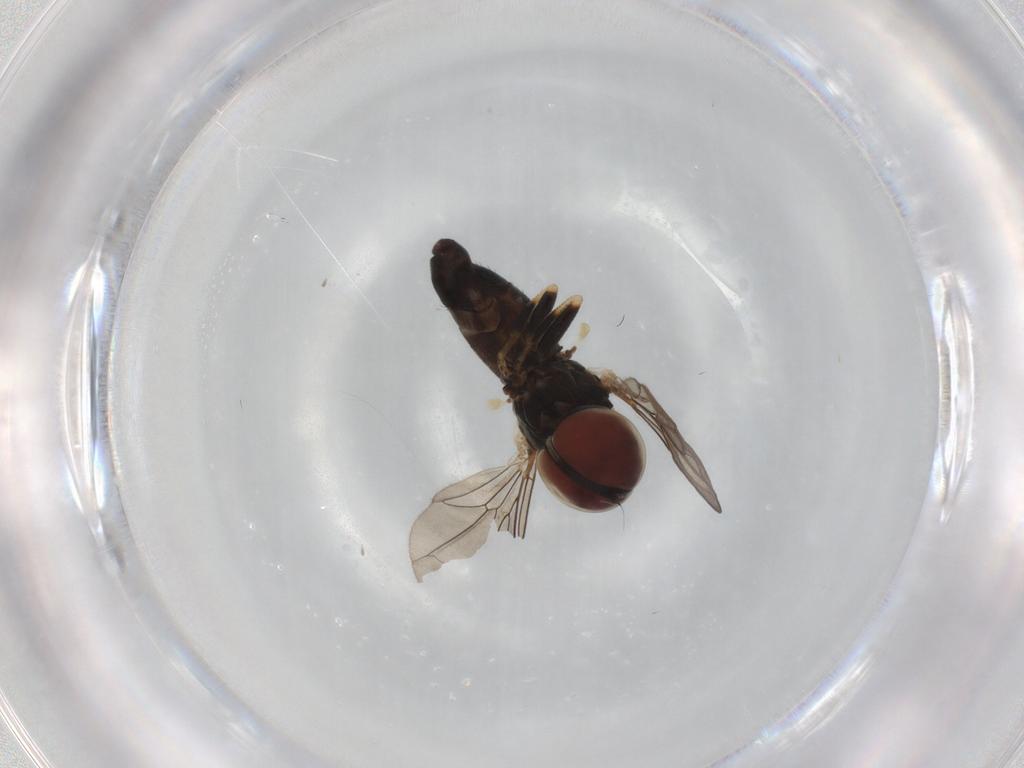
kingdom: Animalia
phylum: Arthropoda
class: Insecta
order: Diptera
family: Pipunculidae
